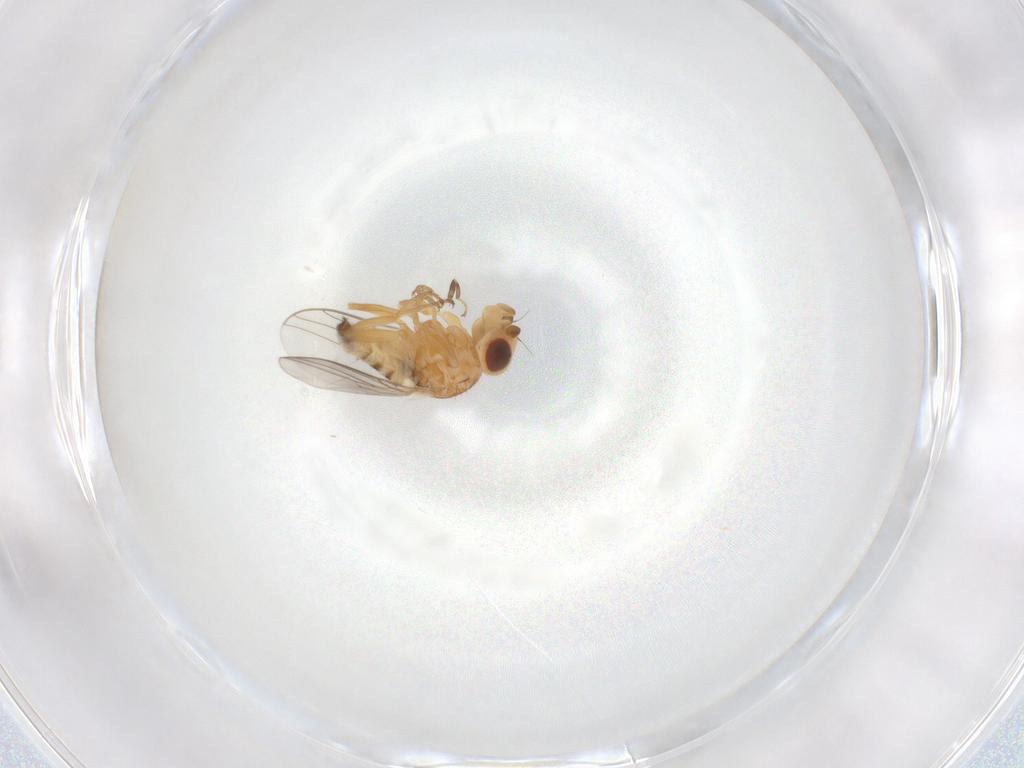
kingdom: Animalia
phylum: Arthropoda
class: Insecta
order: Diptera
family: Chloropidae
